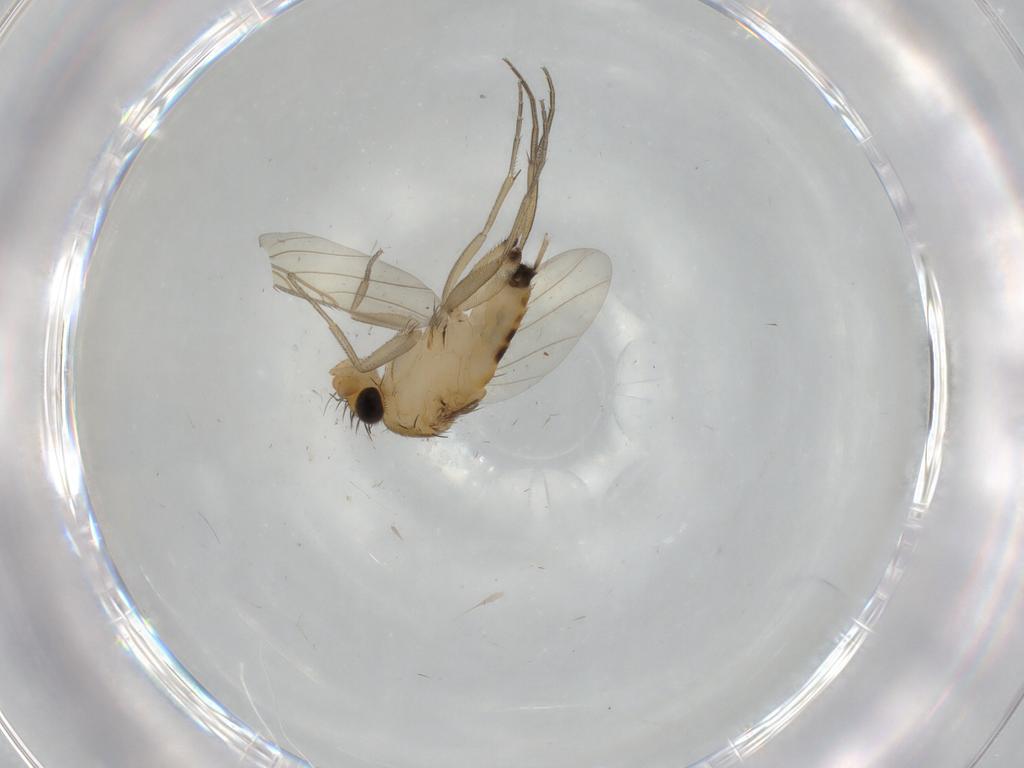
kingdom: Animalia
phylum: Arthropoda
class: Insecta
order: Diptera
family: Phoridae
